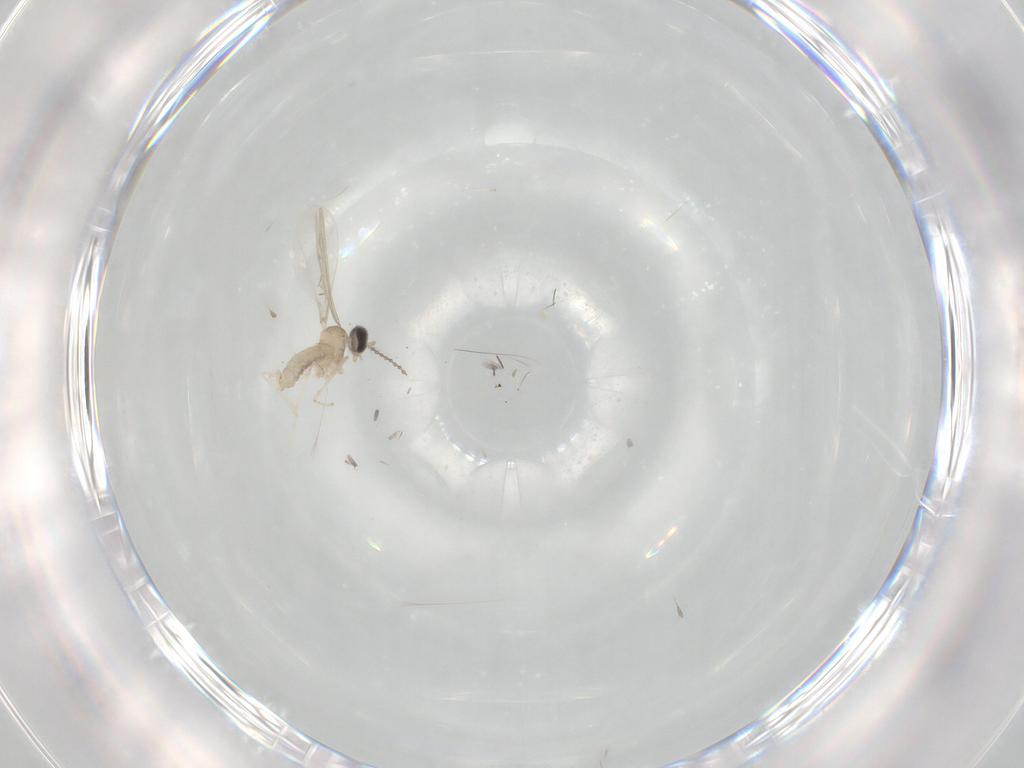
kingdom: Animalia
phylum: Arthropoda
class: Insecta
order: Diptera
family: Cecidomyiidae
